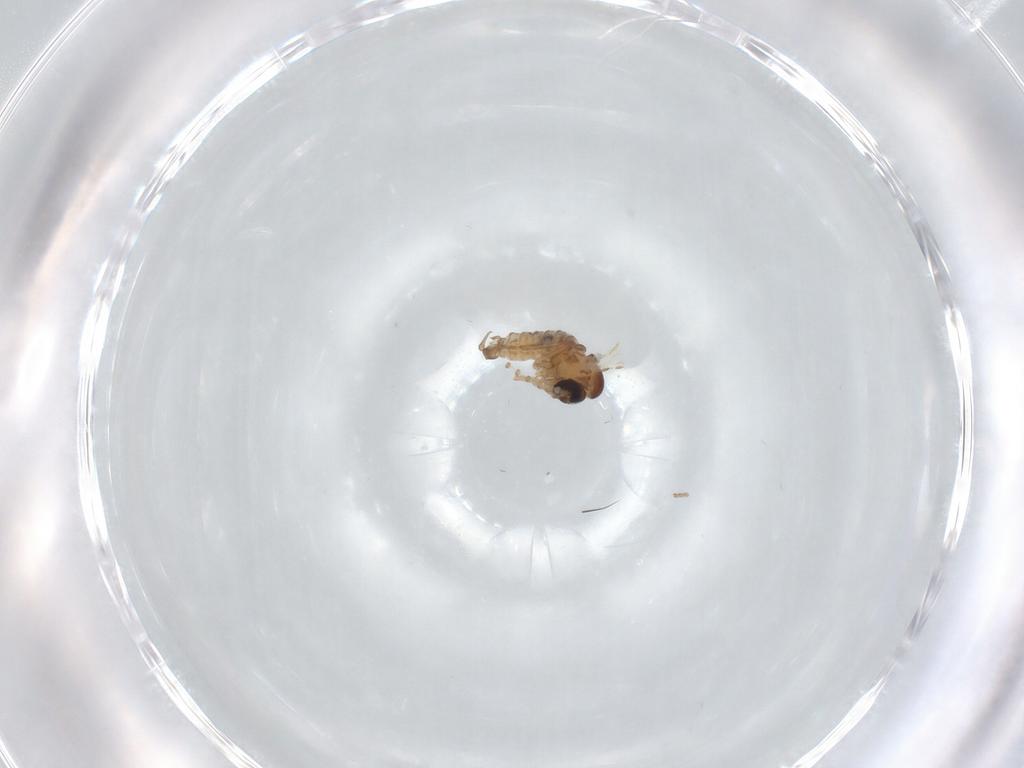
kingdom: Animalia
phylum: Arthropoda
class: Insecta
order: Diptera
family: Psychodidae
